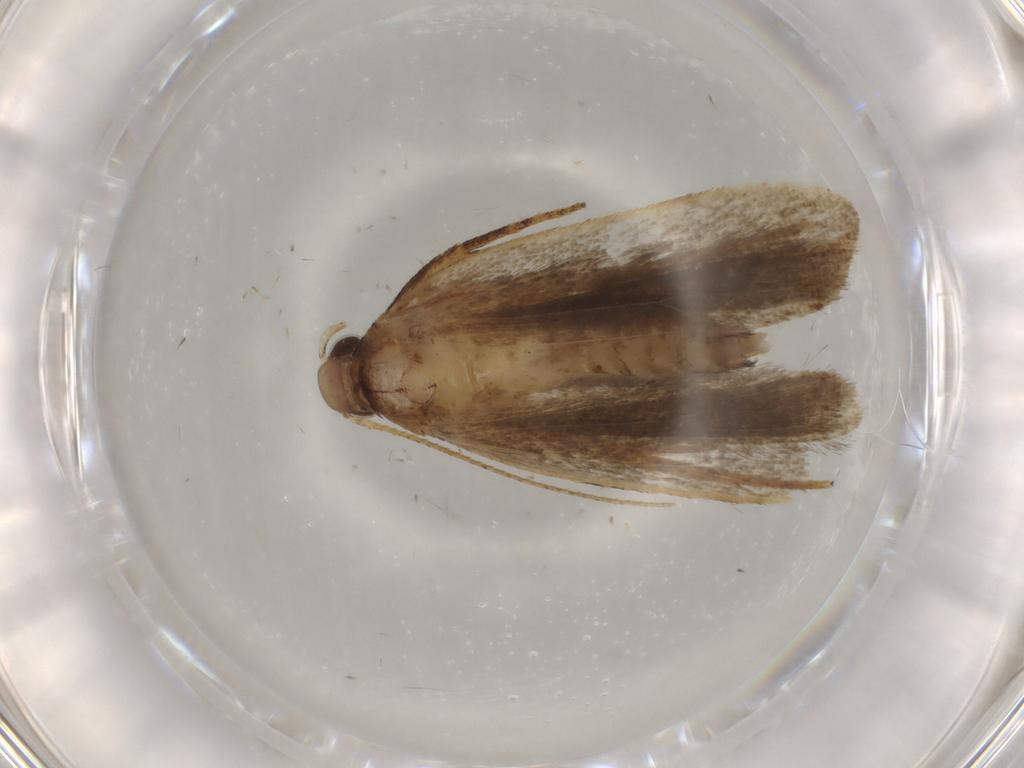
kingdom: Animalia
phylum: Arthropoda
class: Insecta
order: Lepidoptera
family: Gelechiidae
